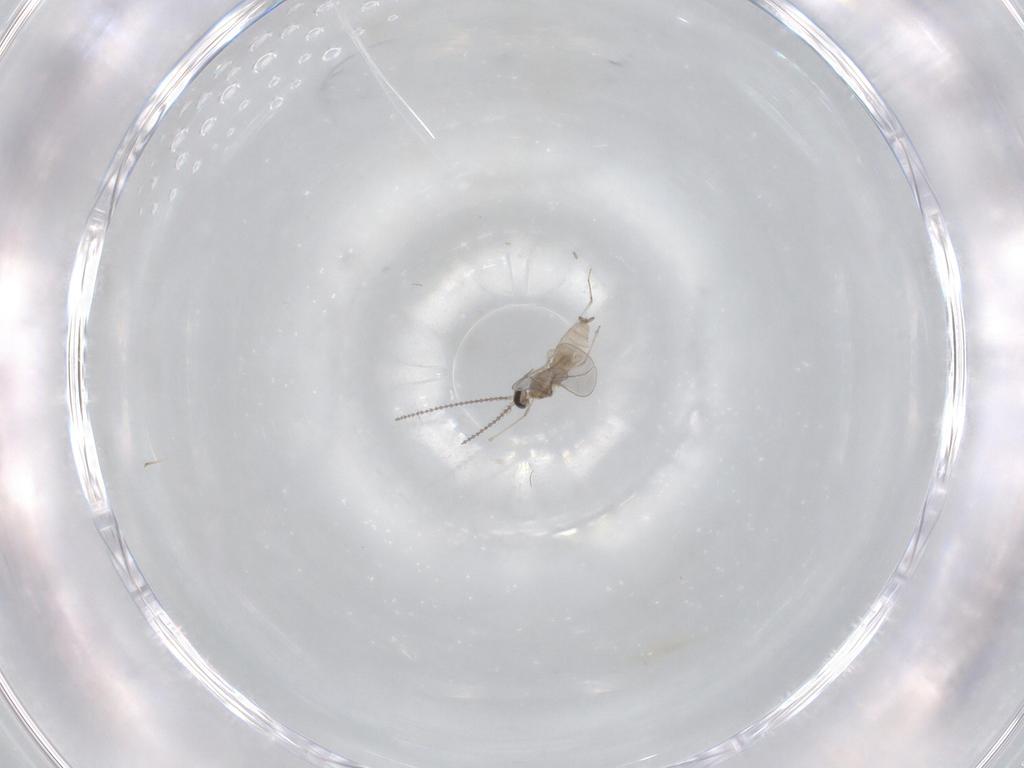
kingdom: Animalia
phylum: Arthropoda
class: Insecta
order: Diptera
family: Cecidomyiidae
